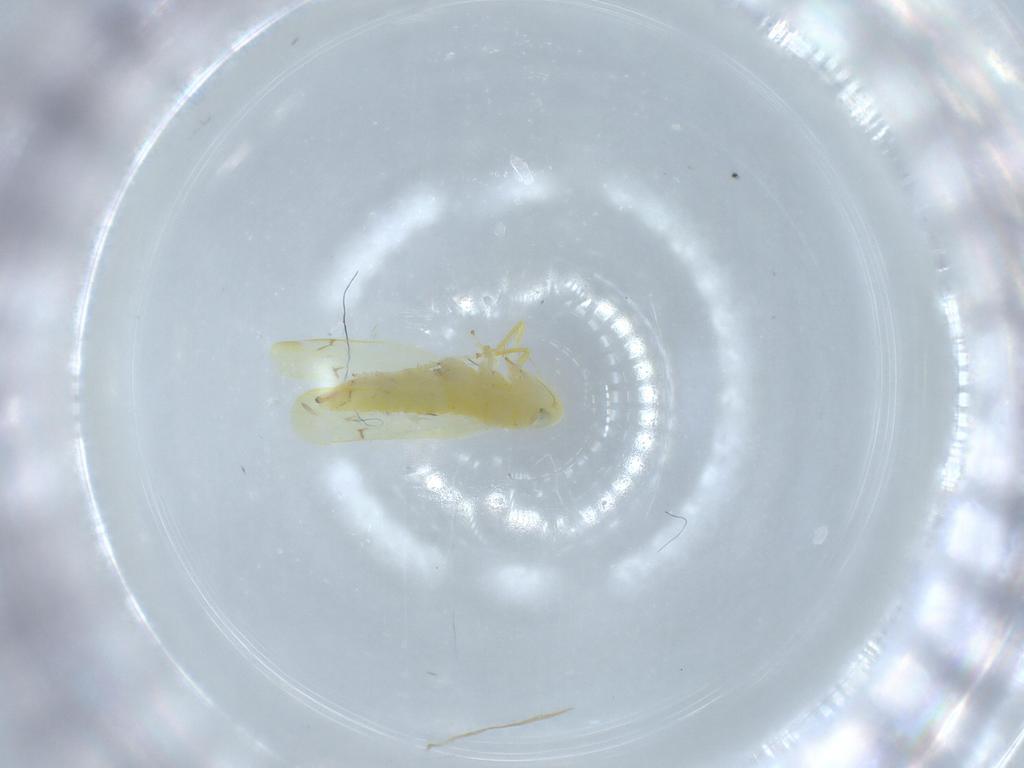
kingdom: Animalia
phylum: Arthropoda
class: Insecta
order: Hemiptera
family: Cicadellidae
